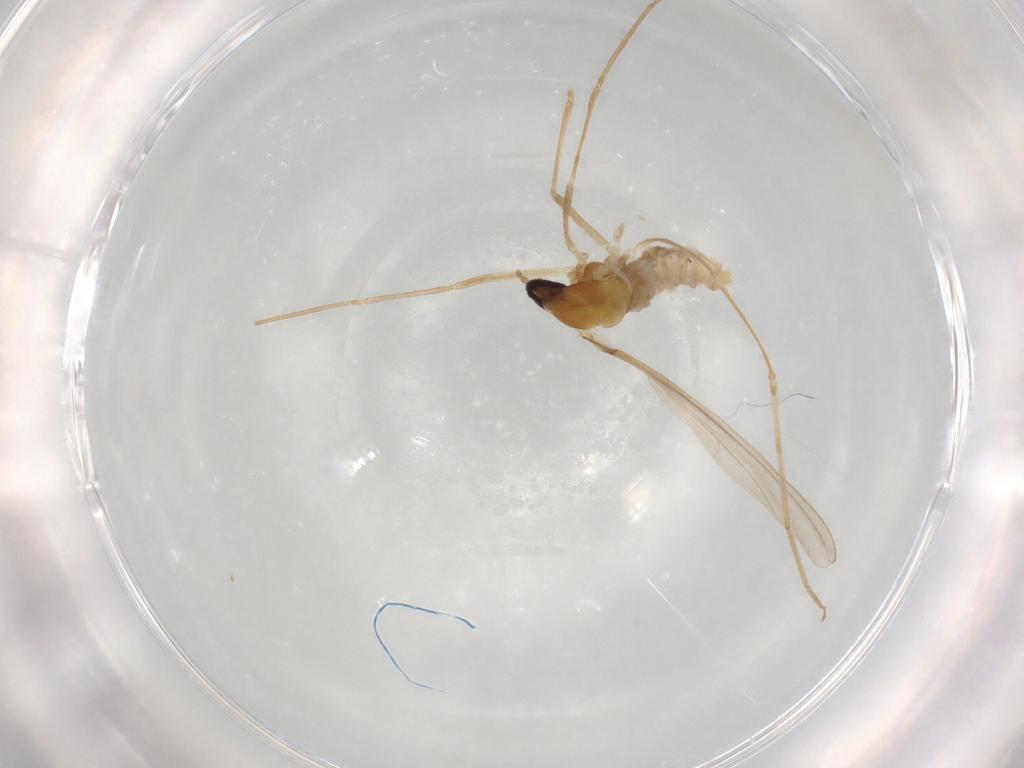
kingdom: Animalia
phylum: Arthropoda
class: Insecta
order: Diptera
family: Cecidomyiidae
